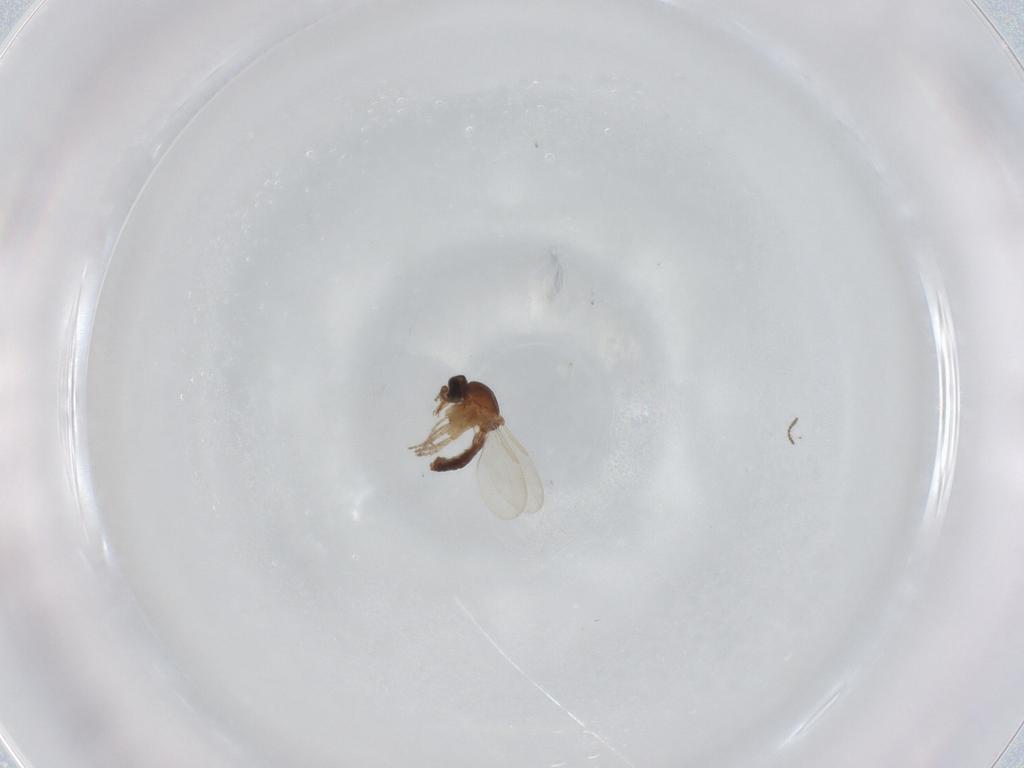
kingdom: Animalia
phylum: Arthropoda
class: Insecta
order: Diptera
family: Ceratopogonidae
